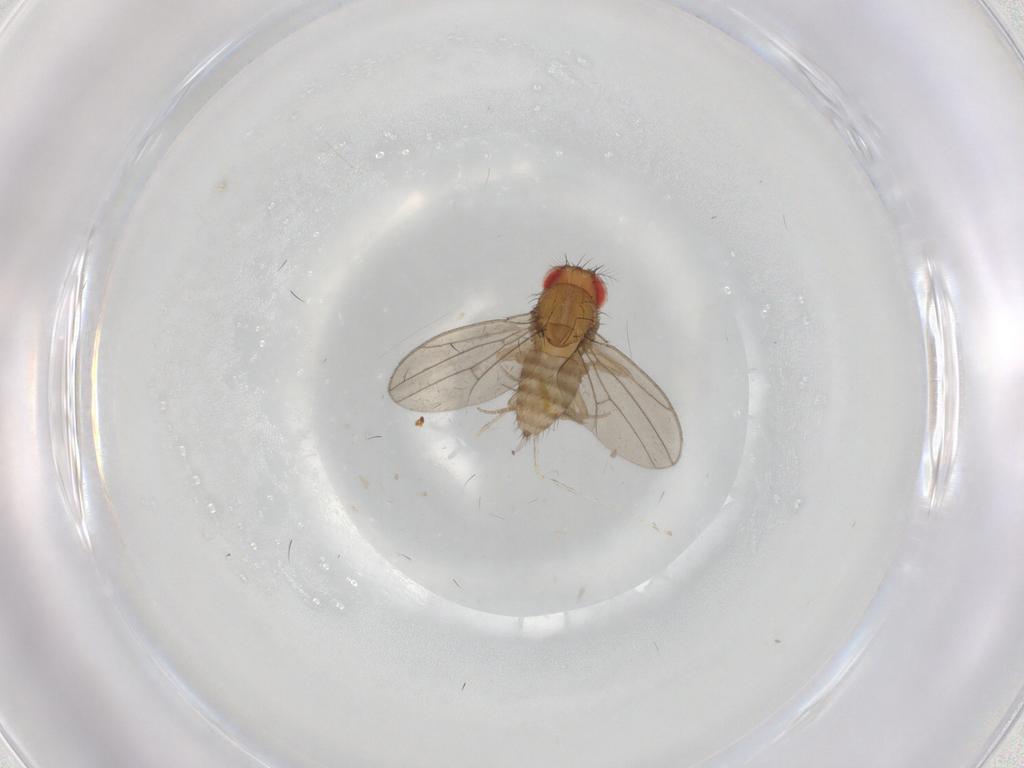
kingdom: Animalia
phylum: Arthropoda
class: Insecta
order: Diptera
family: Drosophilidae
